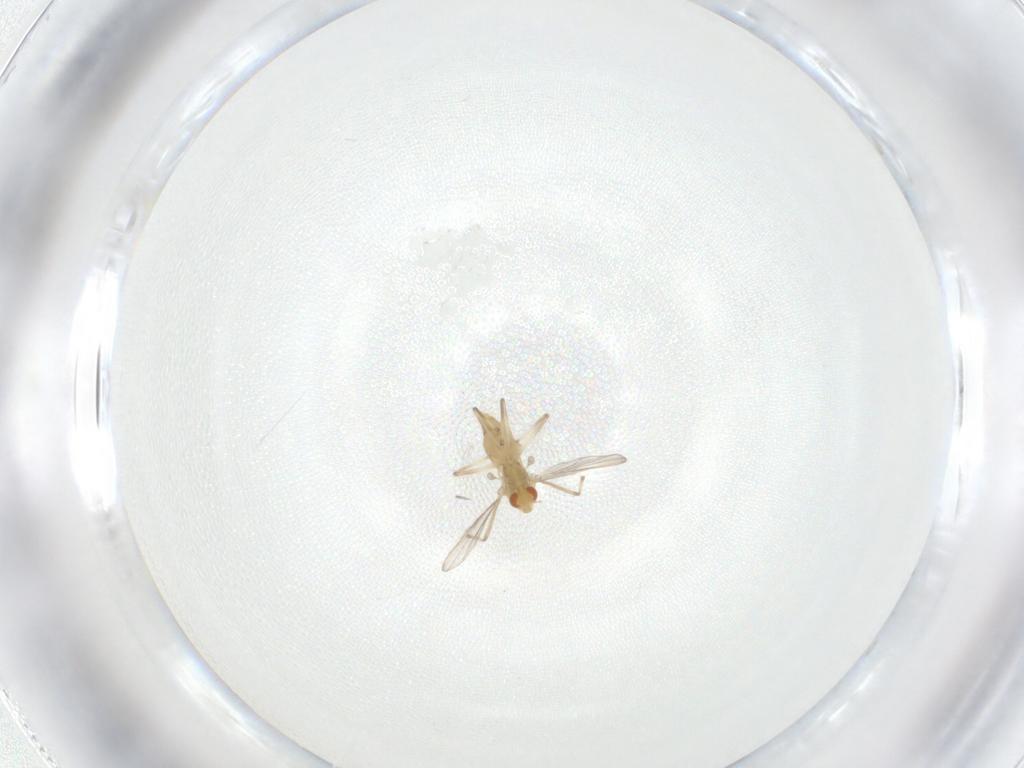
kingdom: Animalia
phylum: Arthropoda
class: Insecta
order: Diptera
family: Chironomidae
